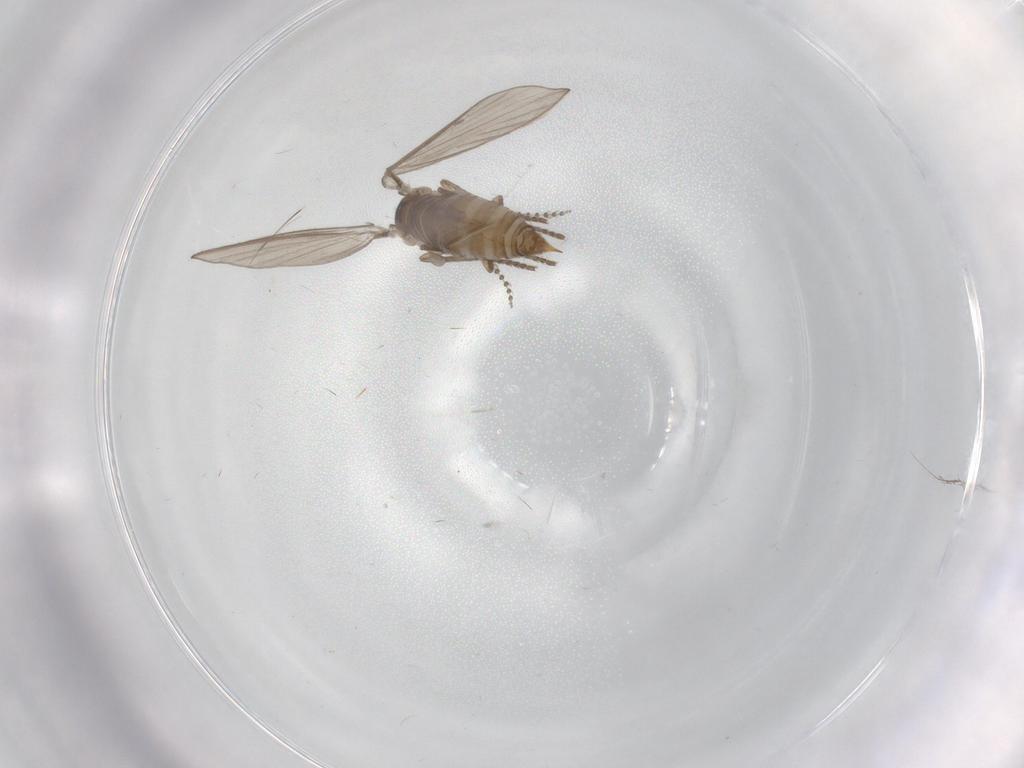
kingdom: Animalia
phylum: Arthropoda
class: Insecta
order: Diptera
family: Psychodidae
